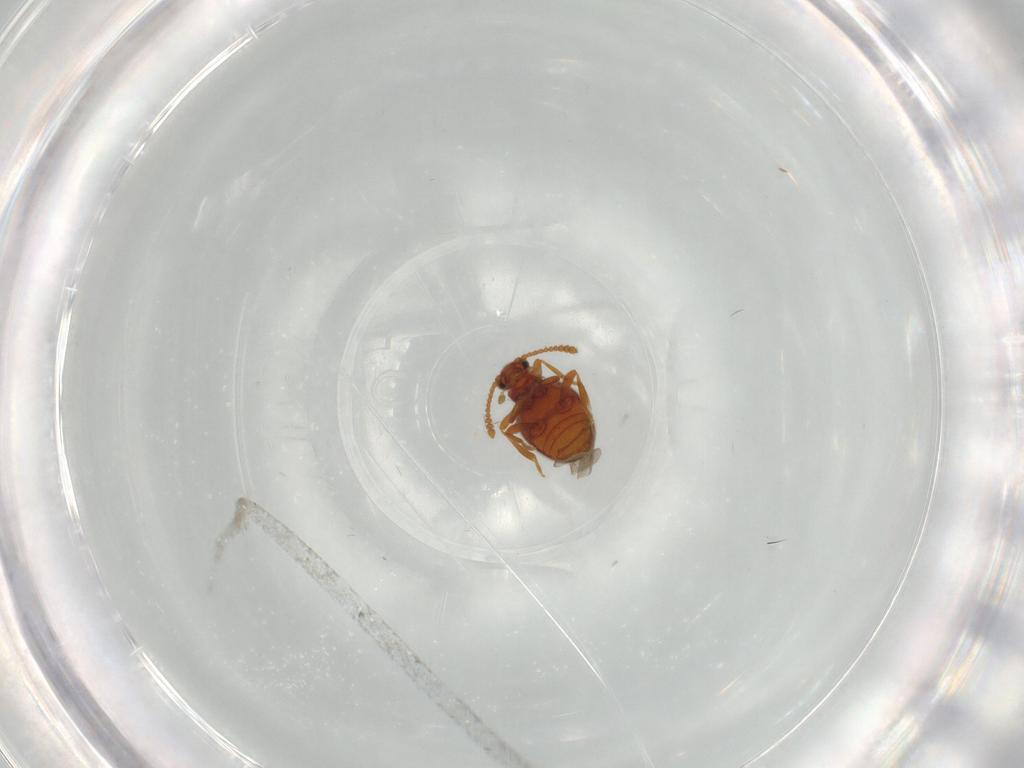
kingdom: Animalia
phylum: Arthropoda
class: Insecta
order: Coleoptera
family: Aderidae
